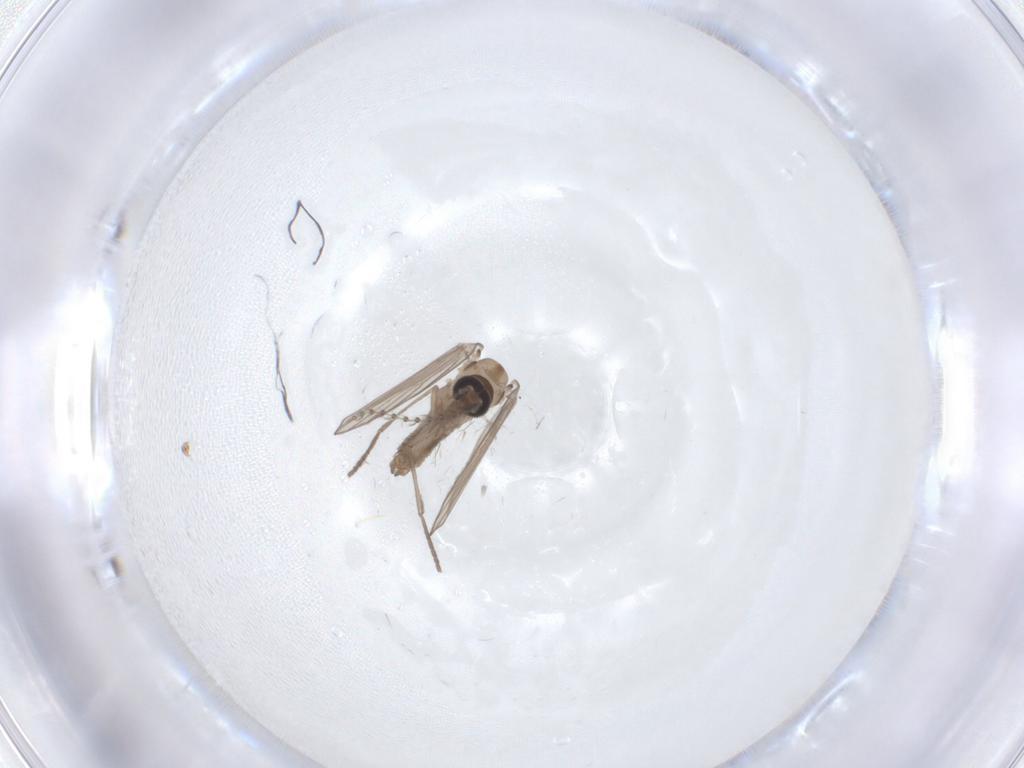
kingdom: Animalia
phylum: Arthropoda
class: Insecta
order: Diptera
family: Psychodidae
